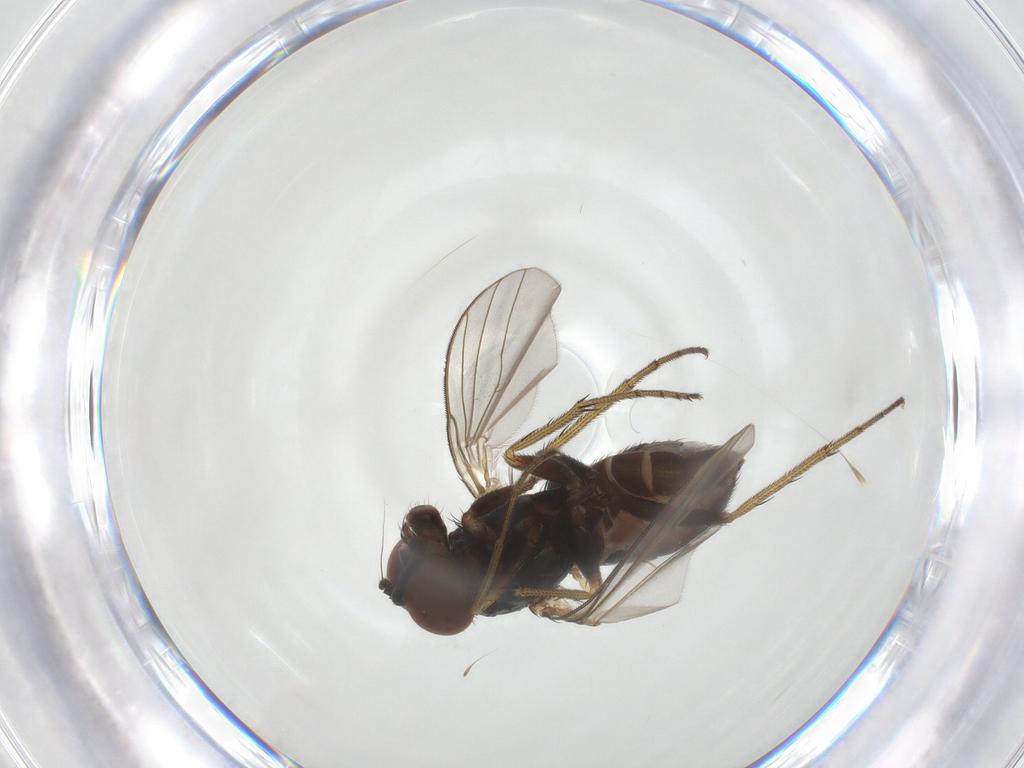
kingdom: Animalia
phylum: Arthropoda
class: Insecta
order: Diptera
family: Dolichopodidae
